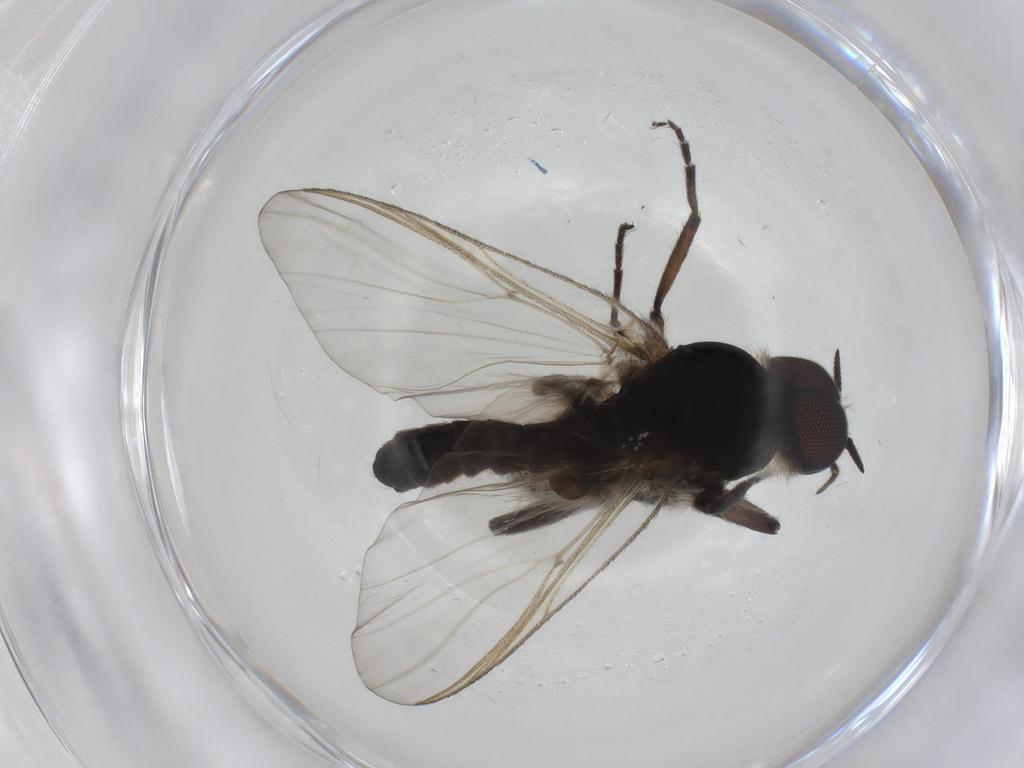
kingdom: Animalia
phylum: Arthropoda
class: Insecta
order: Diptera
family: Simuliidae
